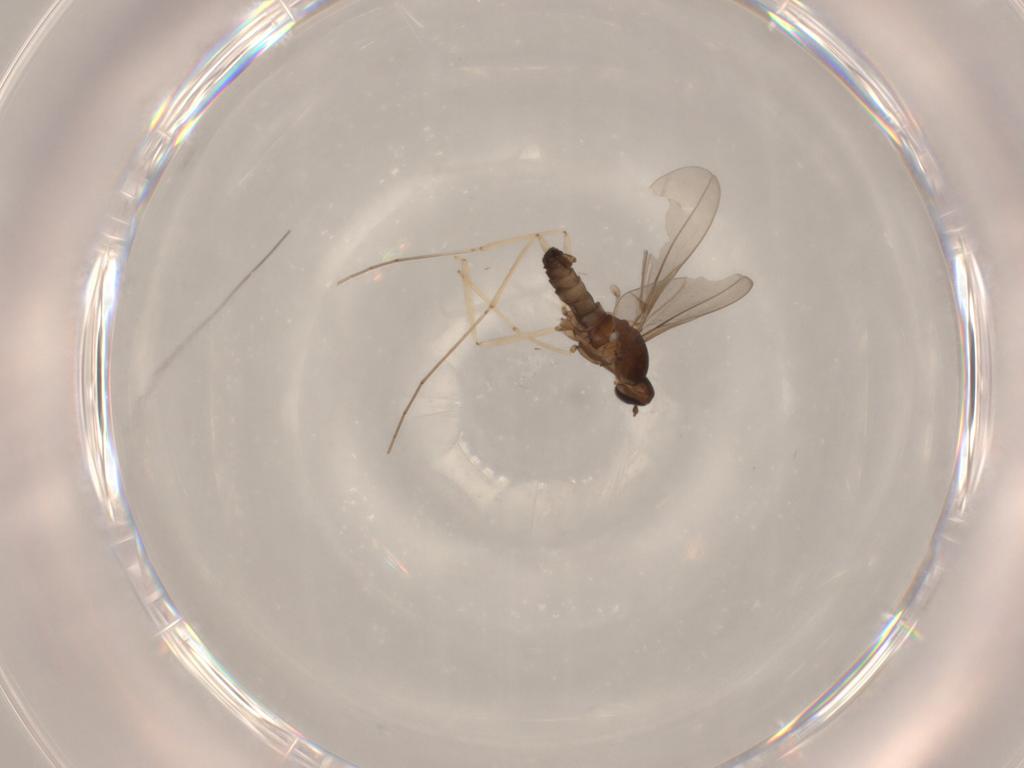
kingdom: Animalia
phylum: Arthropoda
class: Insecta
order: Diptera
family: Cecidomyiidae
